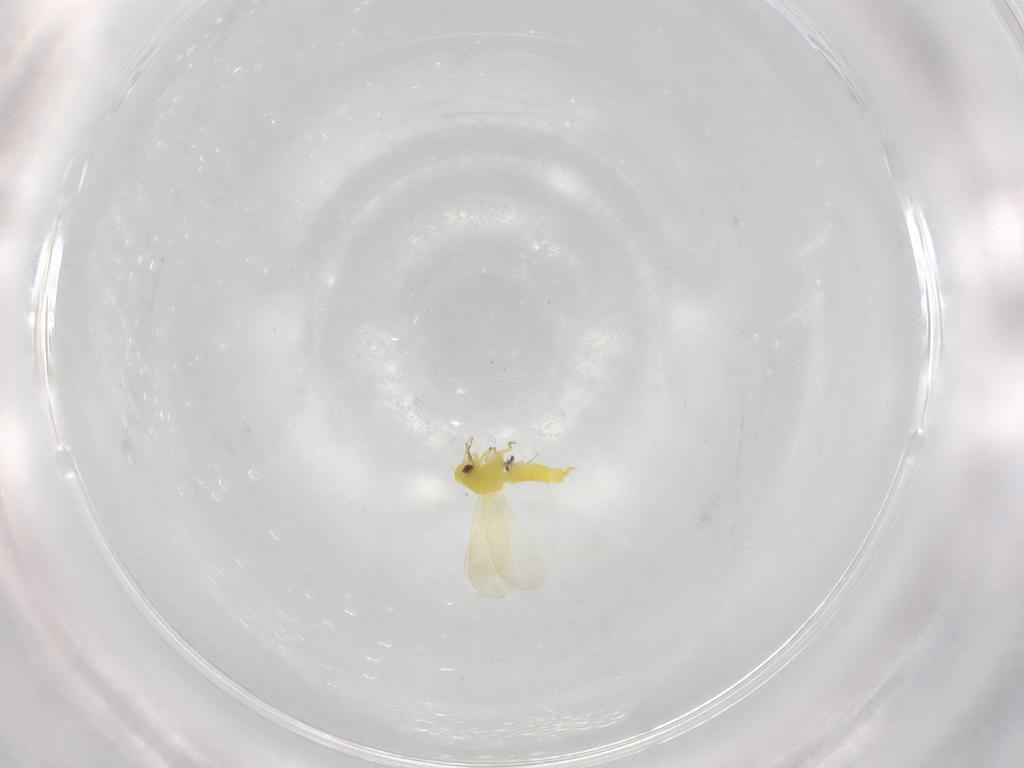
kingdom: Animalia
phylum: Arthropoda
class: Insecta
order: Hemiptera
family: Aleyrodidae
